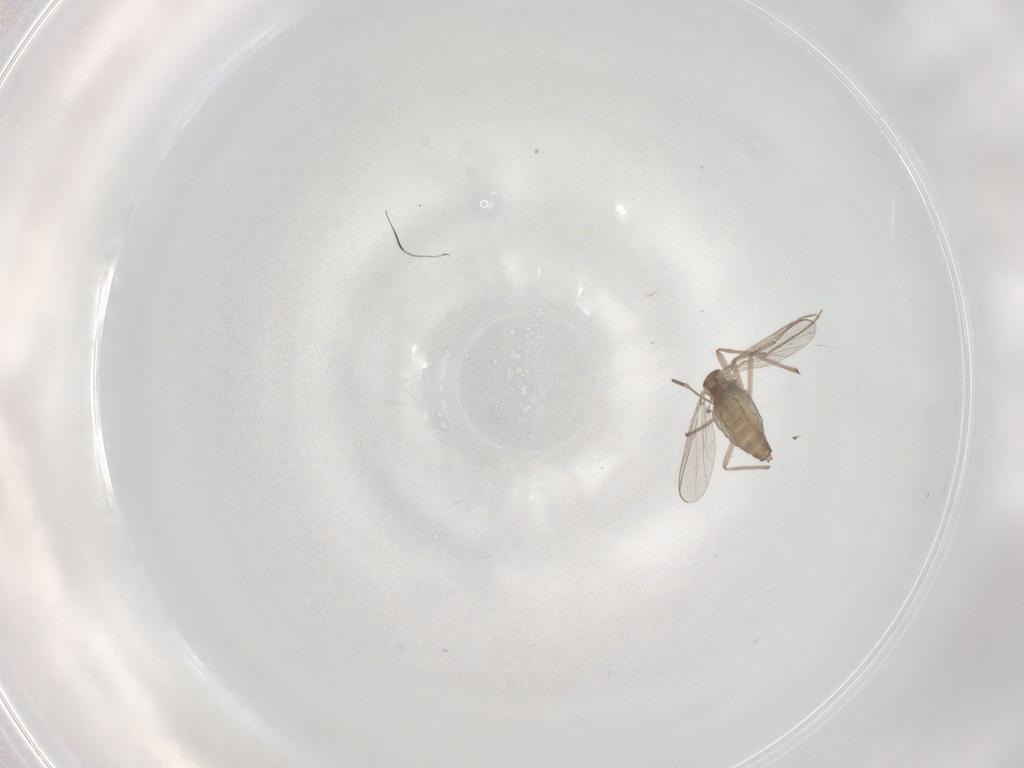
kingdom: Animalia
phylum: Arthropoda
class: Insecta
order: Diptera
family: Chironomidae
